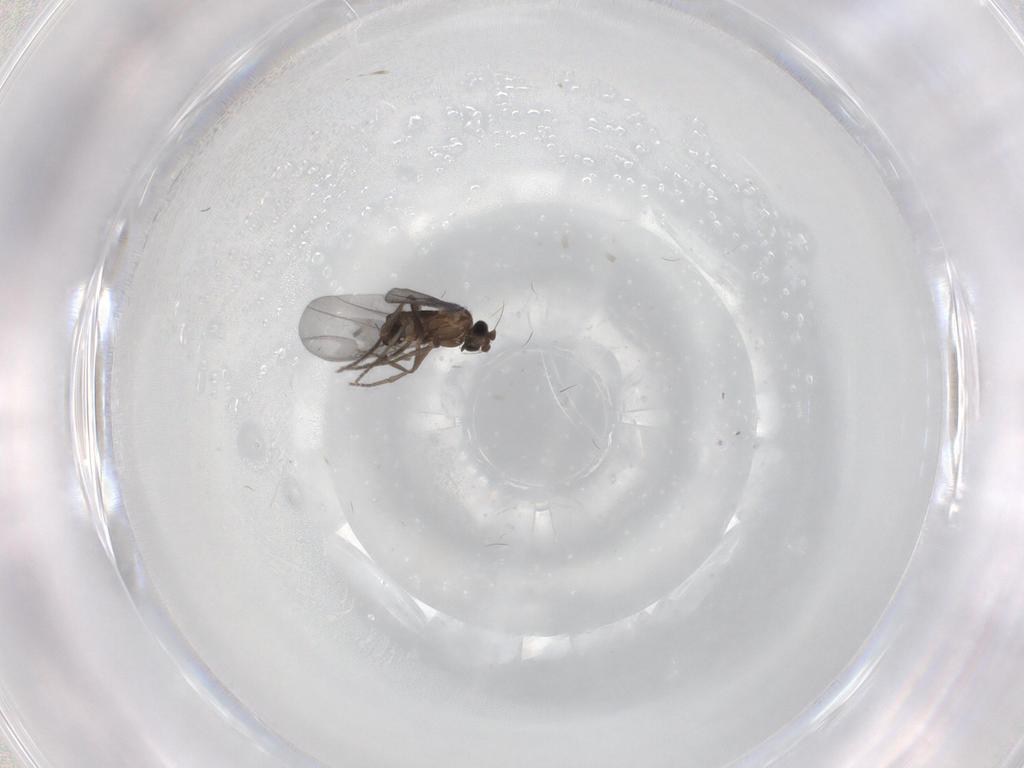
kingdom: Animalia
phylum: Arthropoda
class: Insecta
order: Diptera
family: Phoridae
